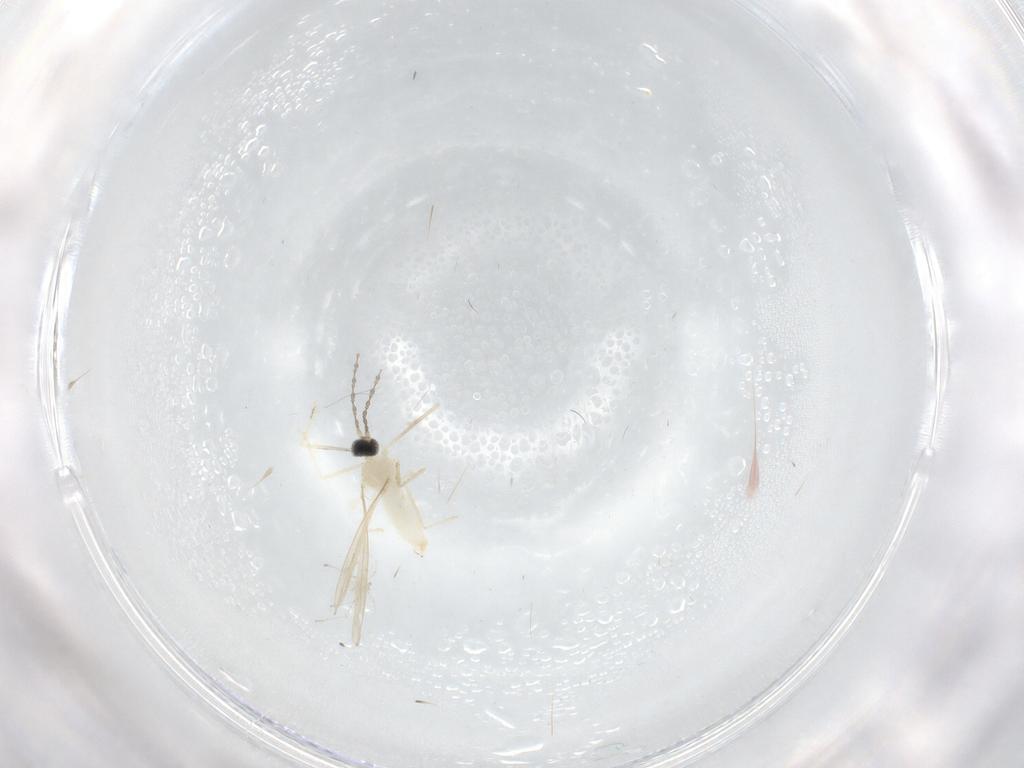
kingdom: Animalia
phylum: Arthropoda
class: Insecta
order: Diptera
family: Chironomidae
